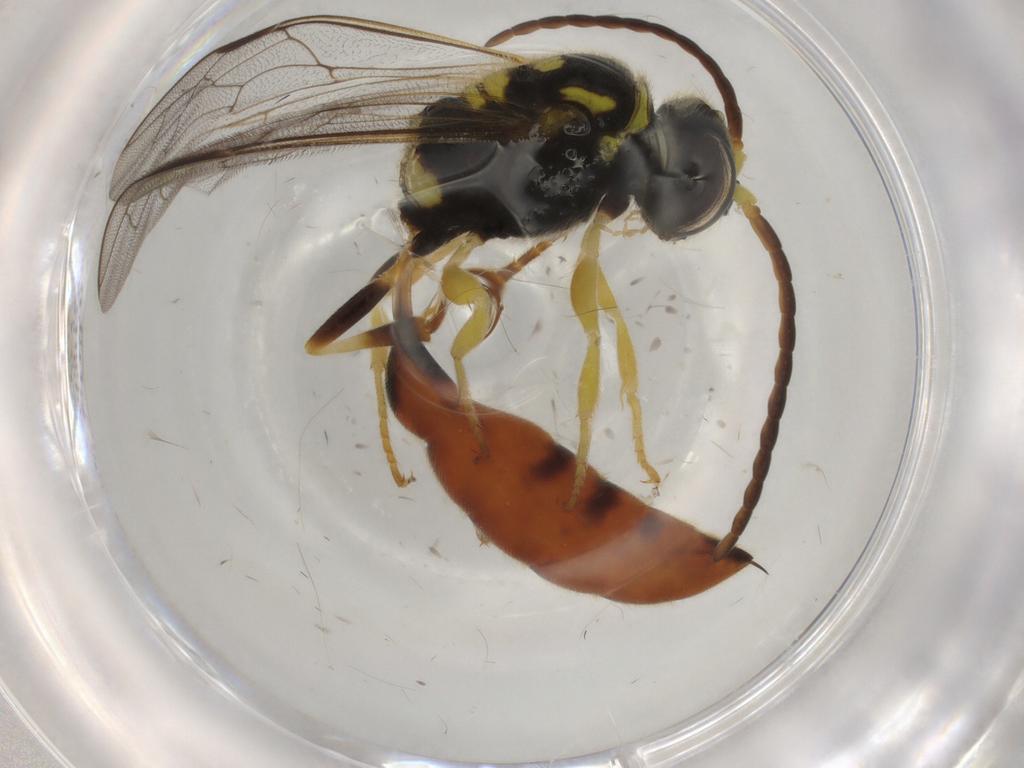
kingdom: Animalia
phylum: Arthropoda
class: Insecta
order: Hymenoptera
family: Crabronidae
